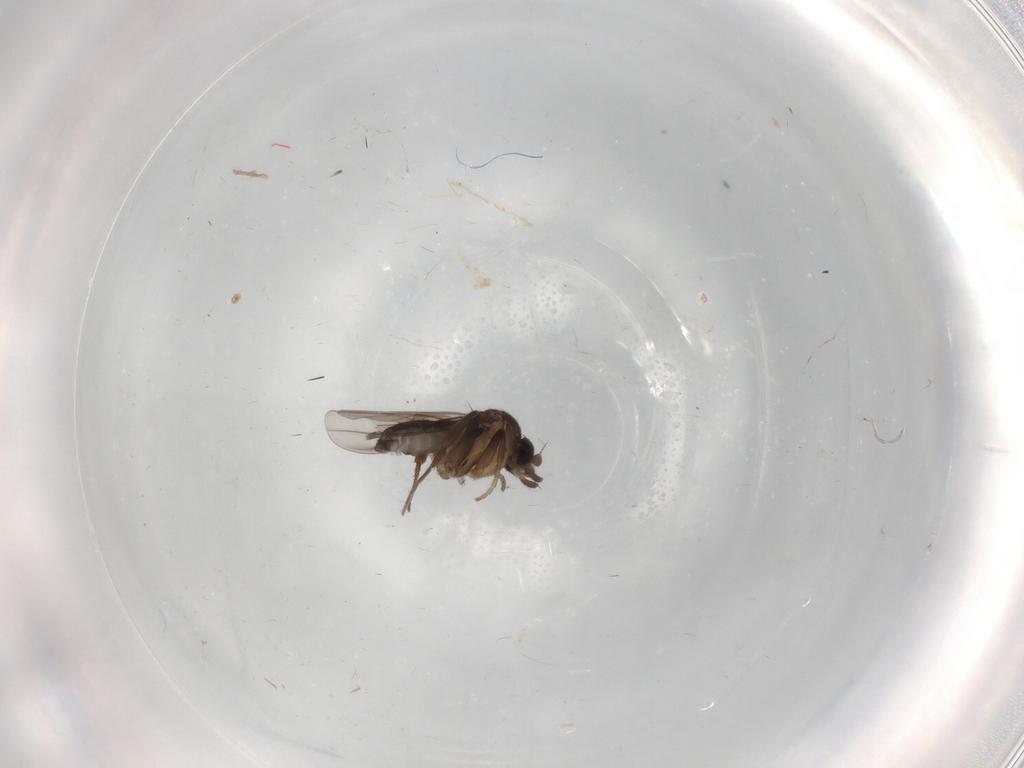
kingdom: Animalia
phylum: Arthropoda
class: Insecta
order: Diptera
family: Phoridae
